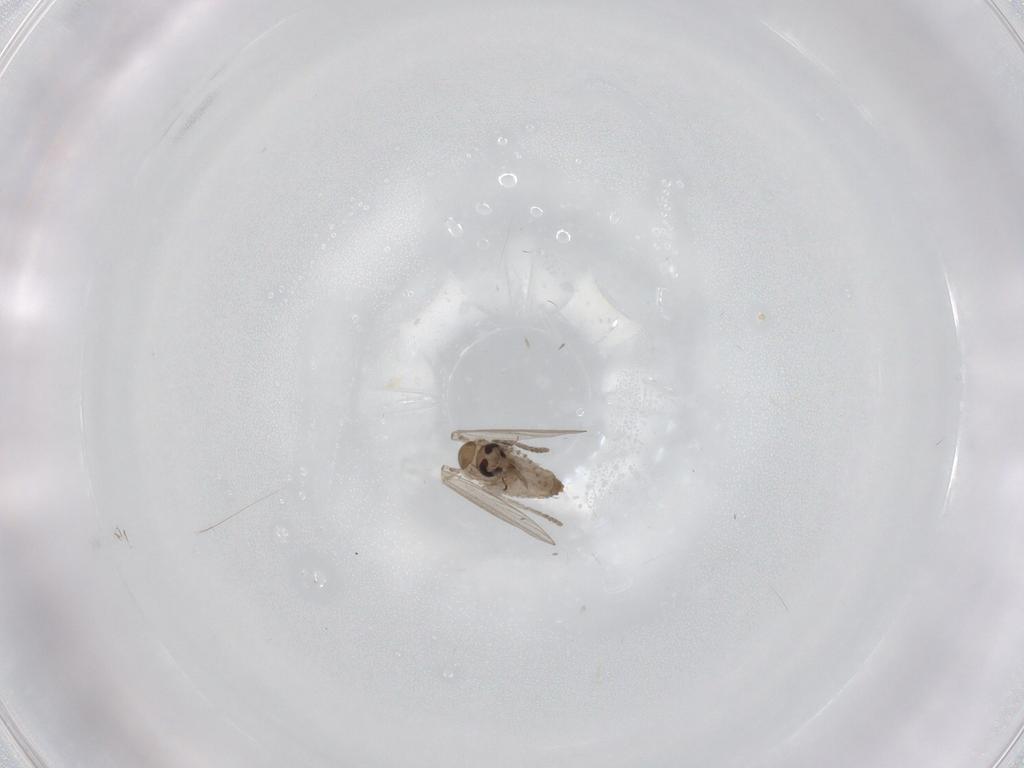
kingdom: Animalia
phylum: Arthropoda
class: Insecta
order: Diptera
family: Psychodidae
